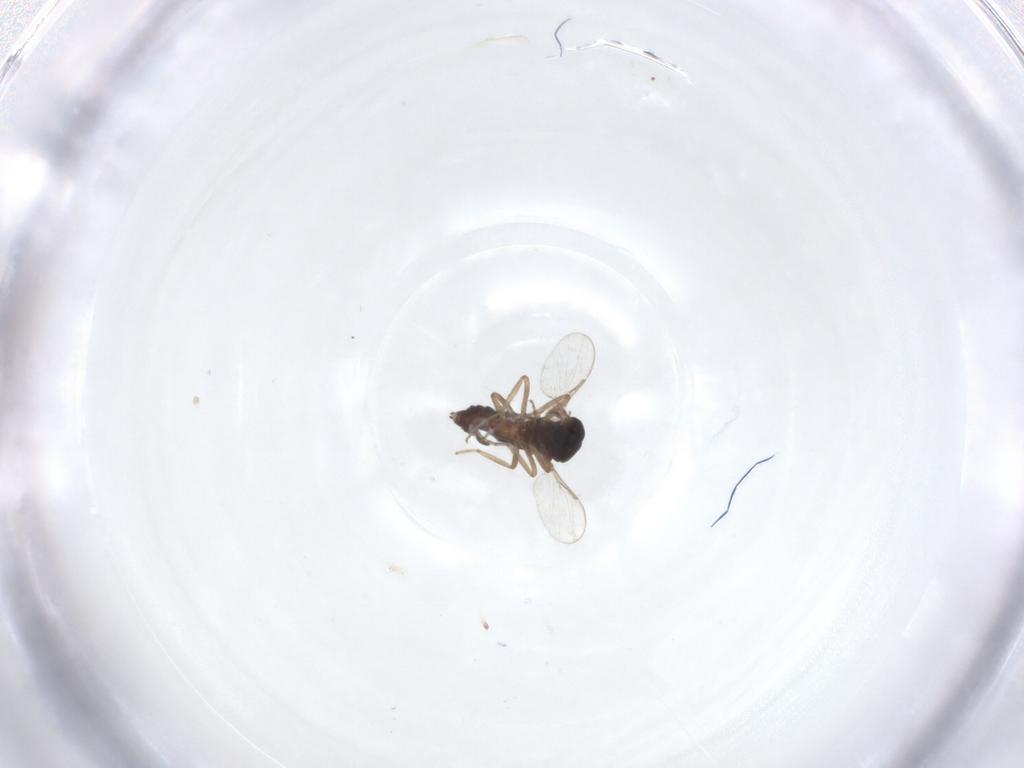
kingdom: Animalia
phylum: Arthropoda
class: Insecta
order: Diptera
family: Ceratopogonidae
